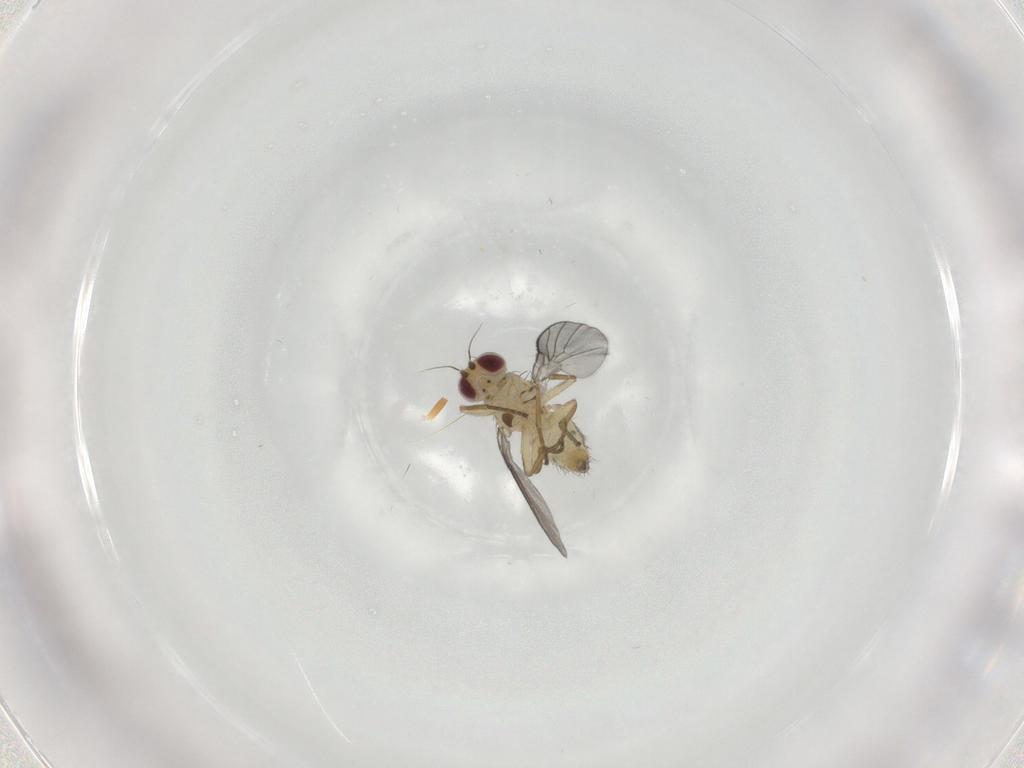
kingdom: Animalia
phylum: Arthropoda
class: Insecta
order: Diptera
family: Agromyzidae
